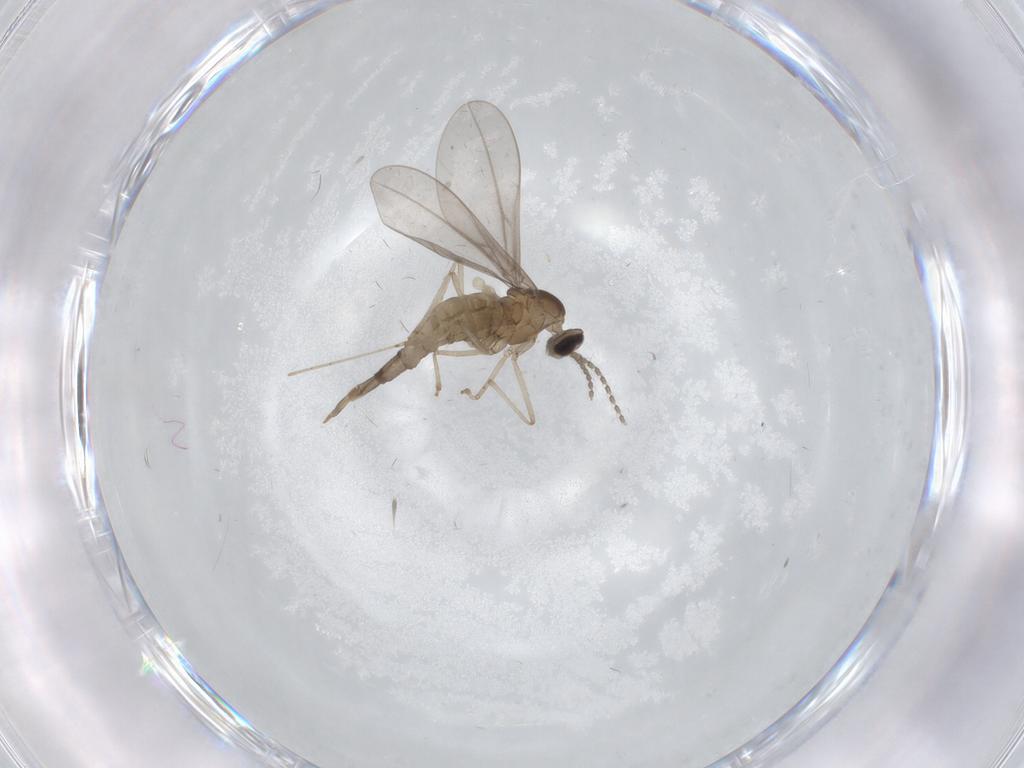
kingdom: Animalia
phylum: Arthropoda
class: Insecta
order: Diptera
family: Cecidomyiidae
